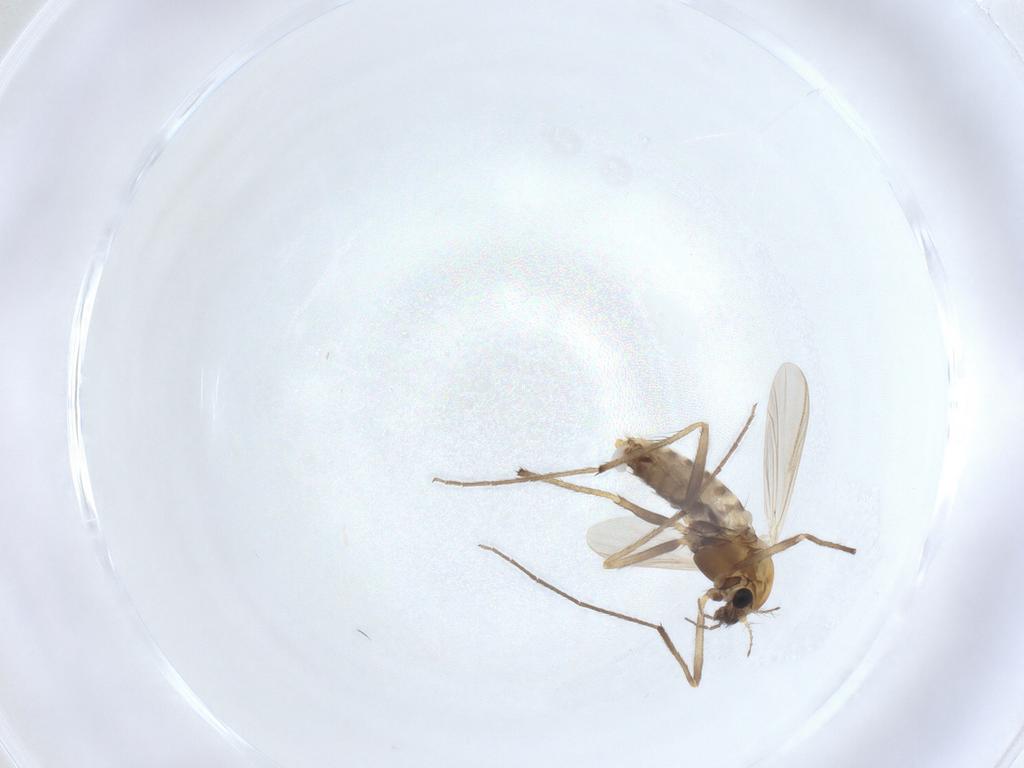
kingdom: Animalia
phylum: Arthropoda
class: Insecta
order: Diptera
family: Chironomidae
